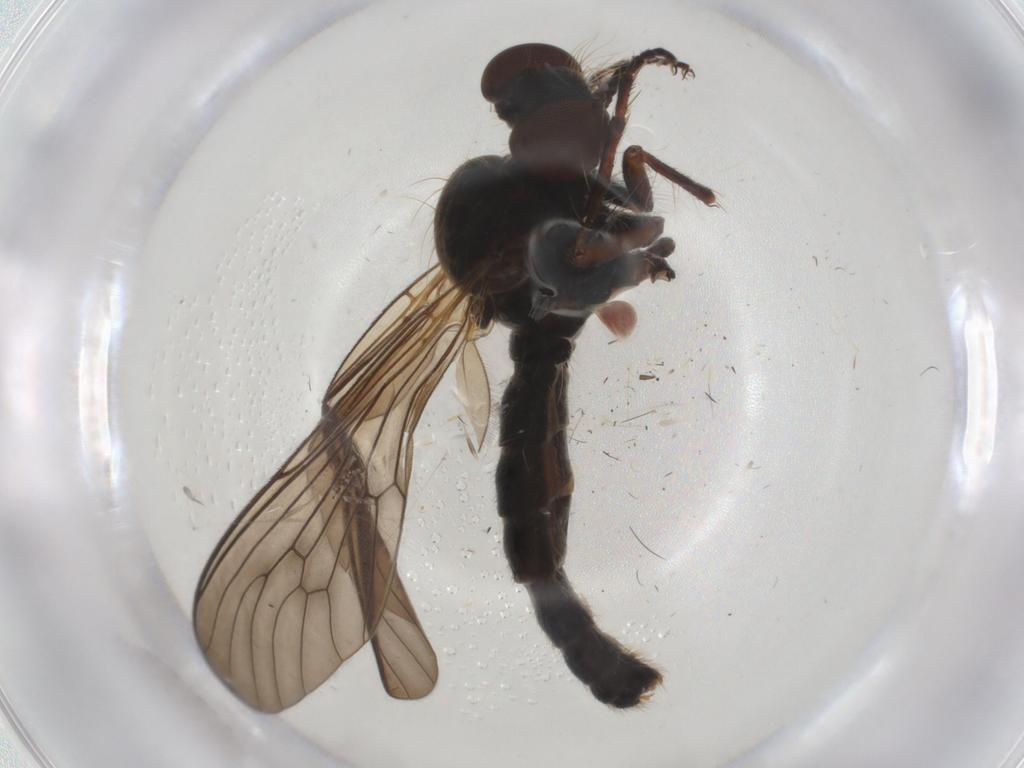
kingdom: Animalia
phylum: Arthropoda
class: Insecta
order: Diptera
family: Asilidae
